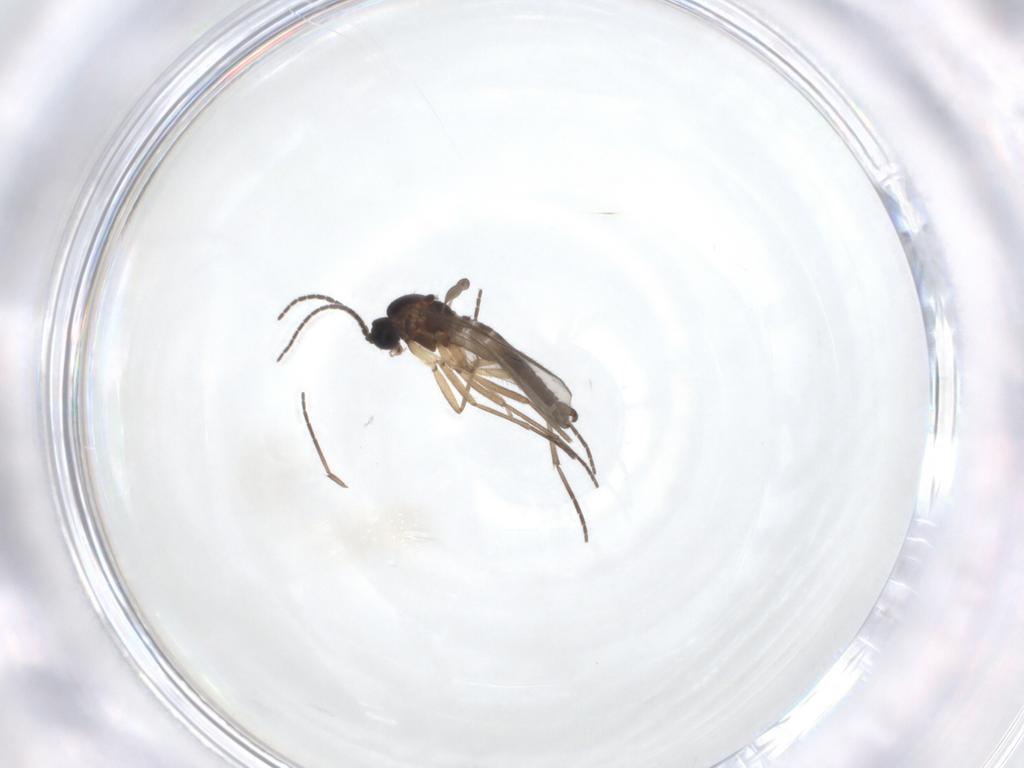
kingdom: Animalia
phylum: Arthropoda
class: Insecta
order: Diptera
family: Sciaridae
